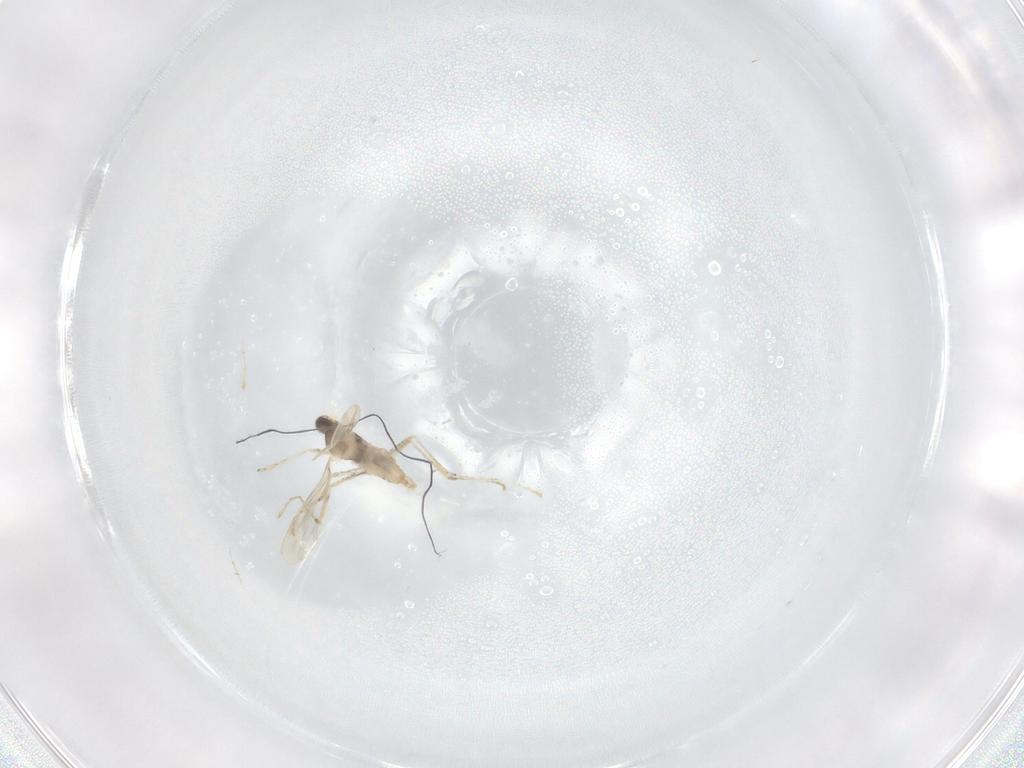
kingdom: Animalia
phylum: Arthropoda
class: Insecta
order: Diptera
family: Cecidomyiidae
